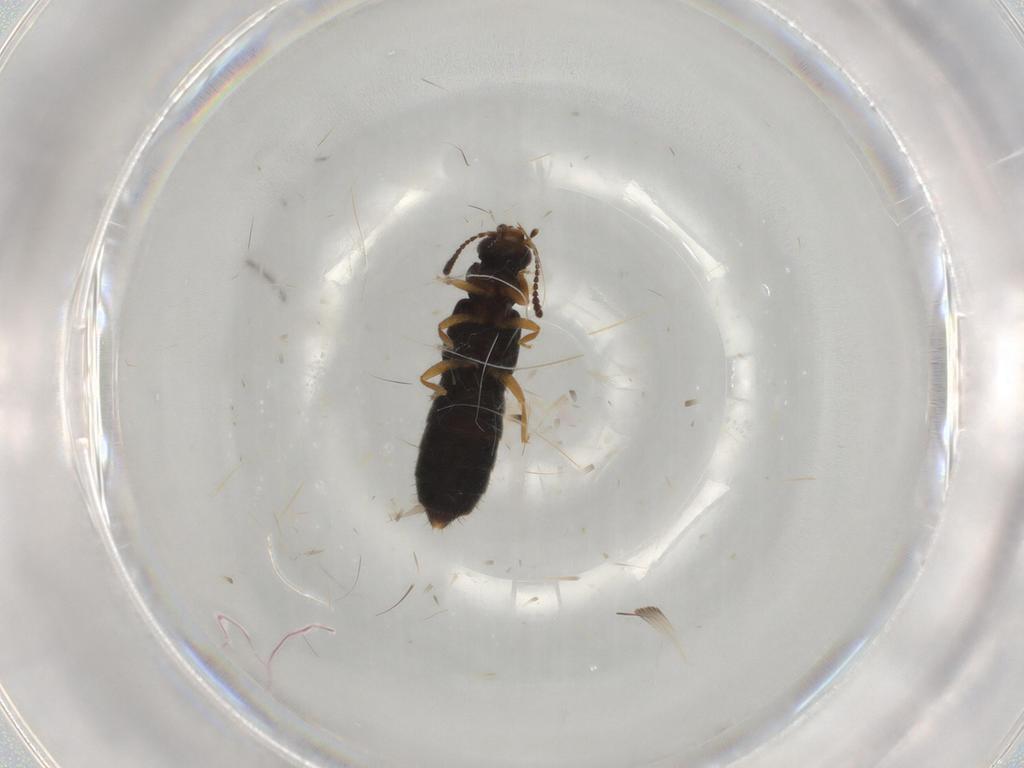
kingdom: Animalia
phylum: Arthropoda
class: Insecta
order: Coleoptera
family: Staphylinidae
